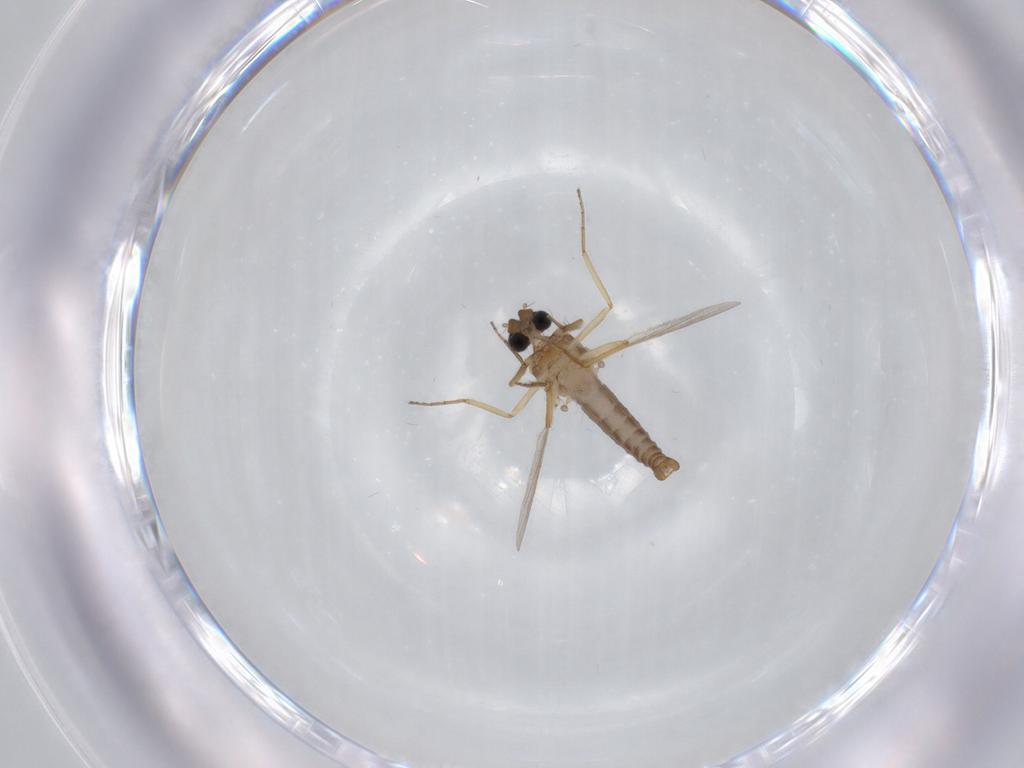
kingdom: Animalia
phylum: Arthropoda
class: Insecta
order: Diptera
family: Ceratopogonidae
